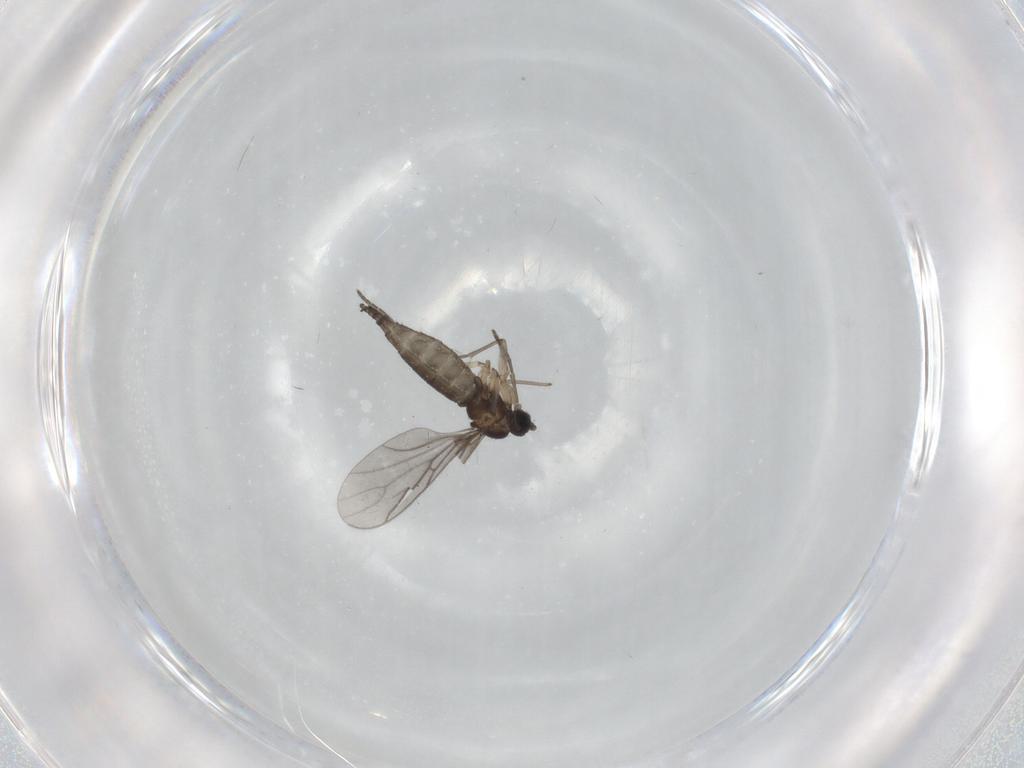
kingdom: Animalia
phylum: Arthropoda
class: Insecta
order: Diptera
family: Sciaridae
